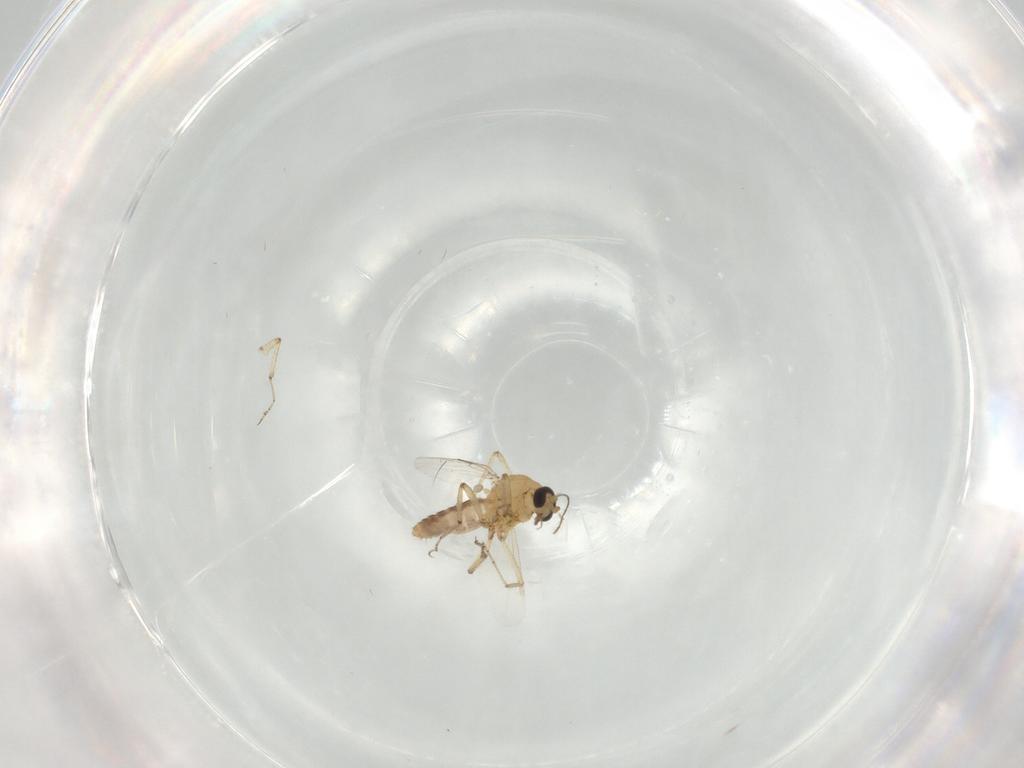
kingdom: Animalia
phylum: Arthropoda
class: Insecta
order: Diptera
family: Ceratopogonidae
